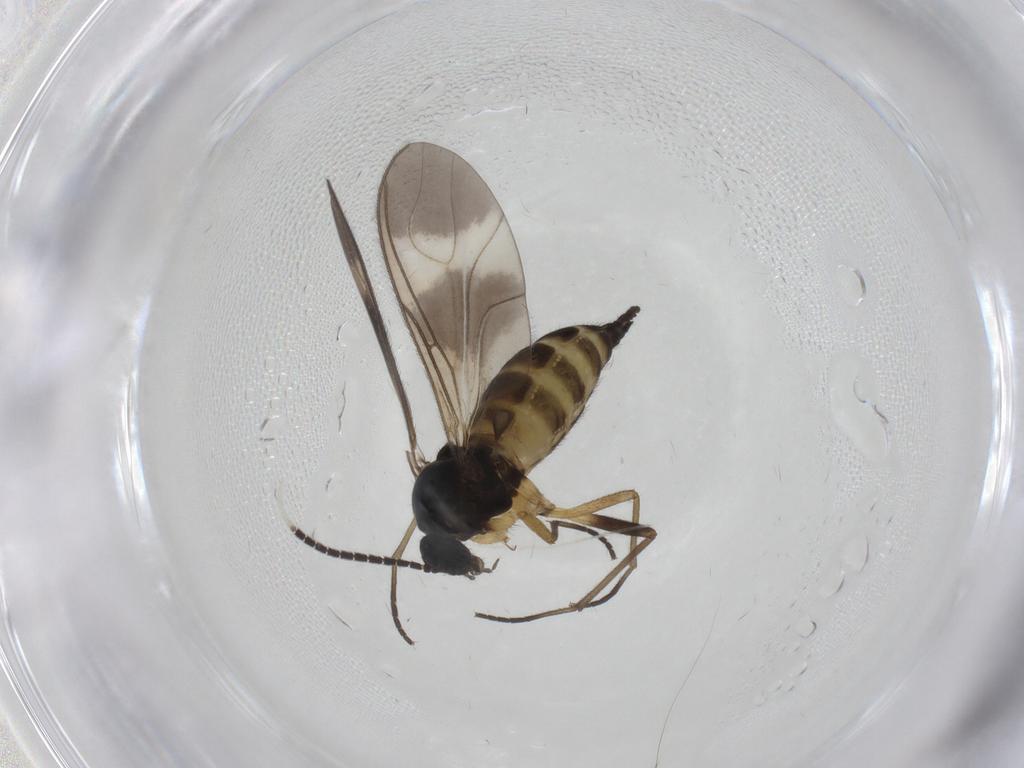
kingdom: Animalia
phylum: Arthropoda
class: Insecta
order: Diptera
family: Sciaridae
